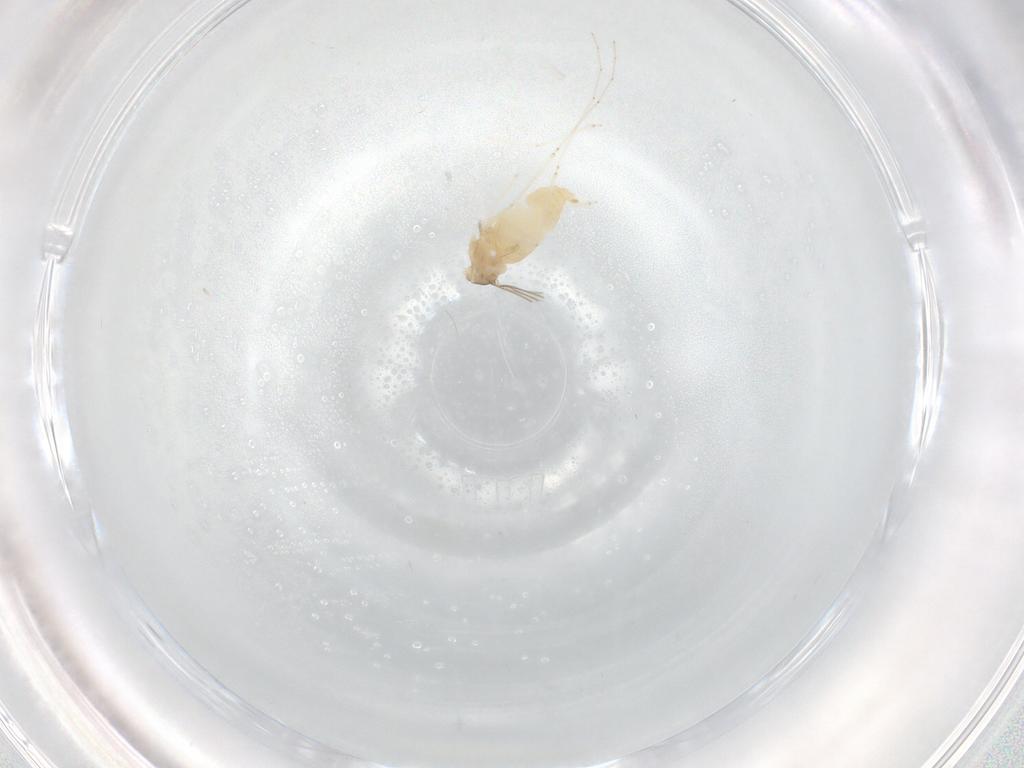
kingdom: Animalia
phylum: Arthropoda
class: Insecta
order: Diptera
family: Cecidomyiidae
